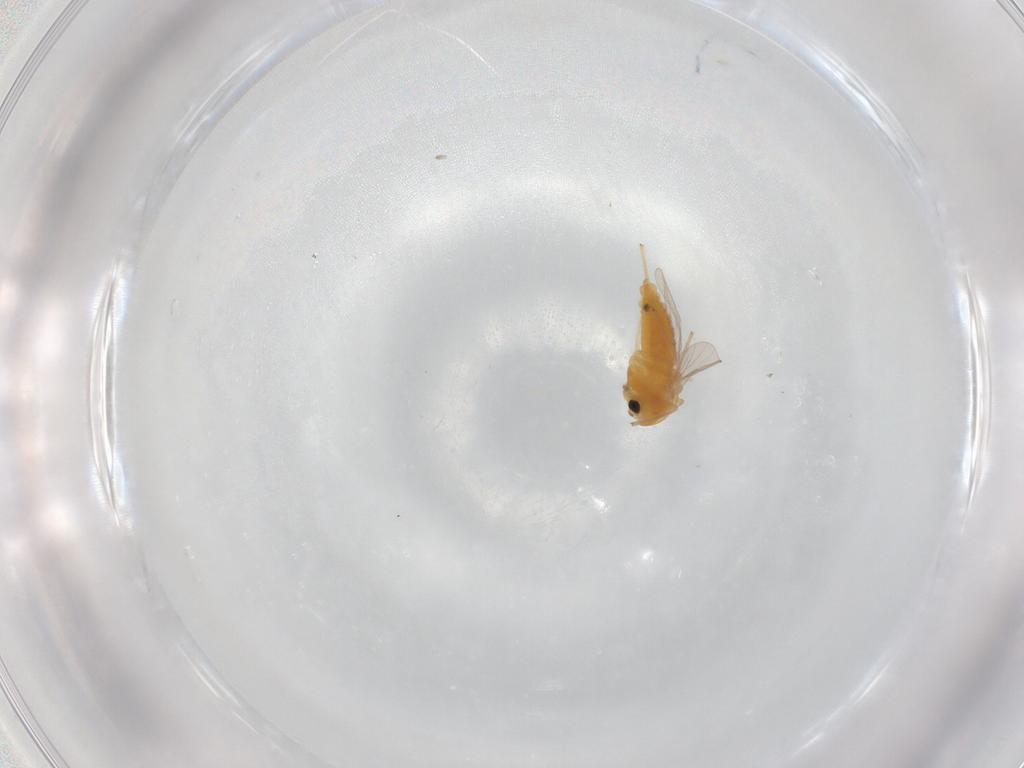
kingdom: Animalia
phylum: Arthropoda
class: Insecta
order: Diptera
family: Chironomidae
